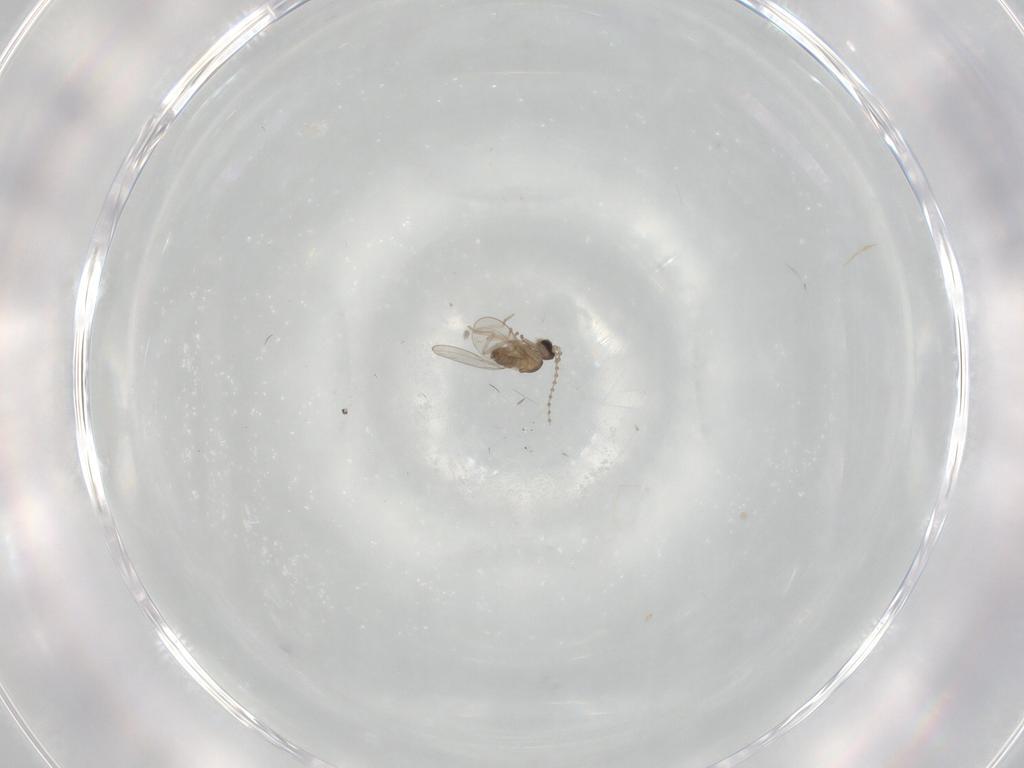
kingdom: Animalia
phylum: Arthropoda
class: Insecta
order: Diptera
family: Cecidomyiidae
